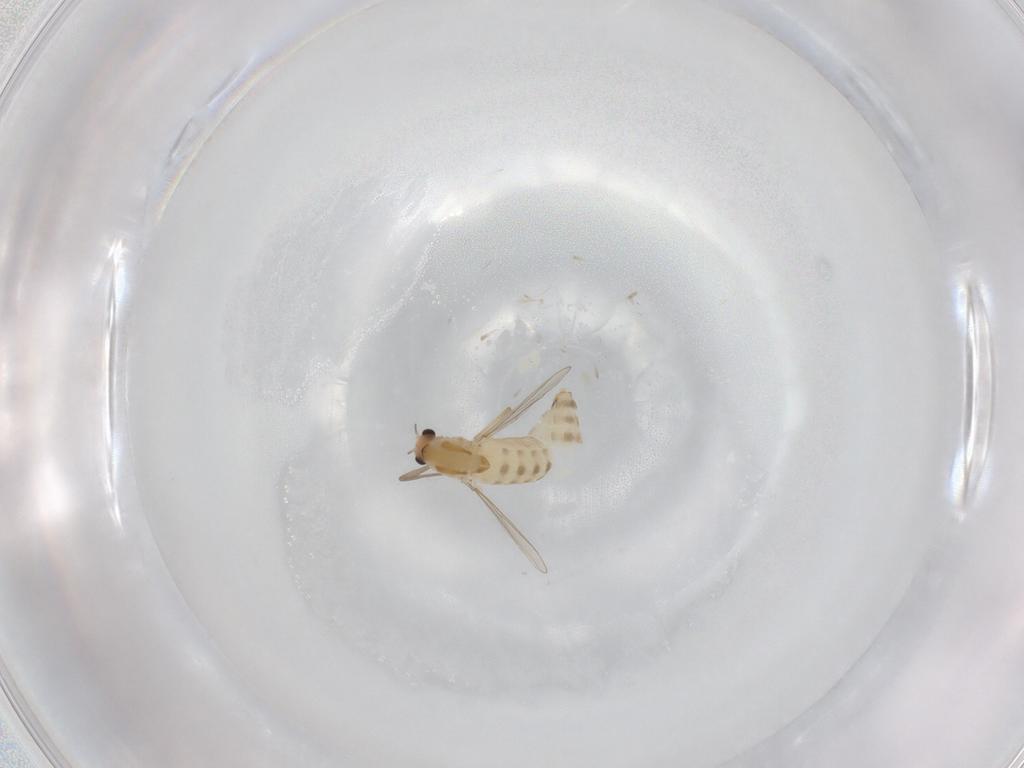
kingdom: Animalia
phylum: Arthropoda
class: Insecta
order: Diptera
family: Chironomidae
